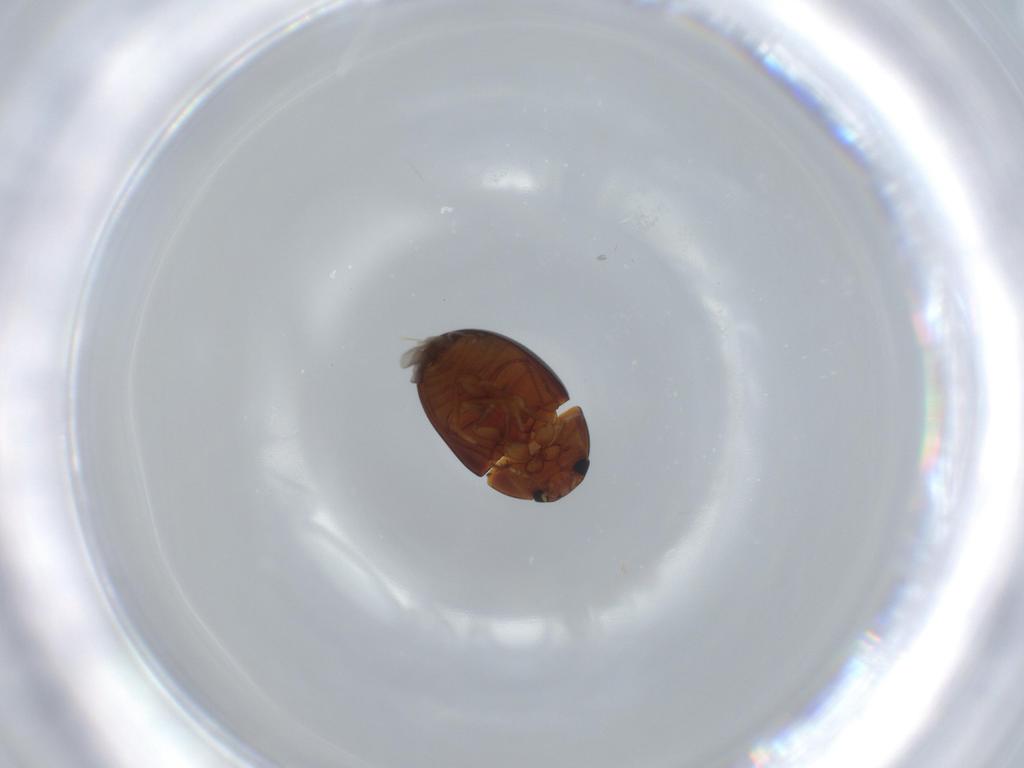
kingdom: Animalia
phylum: Arthropoda
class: Insecta
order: Coleoptera
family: Phalacridae
